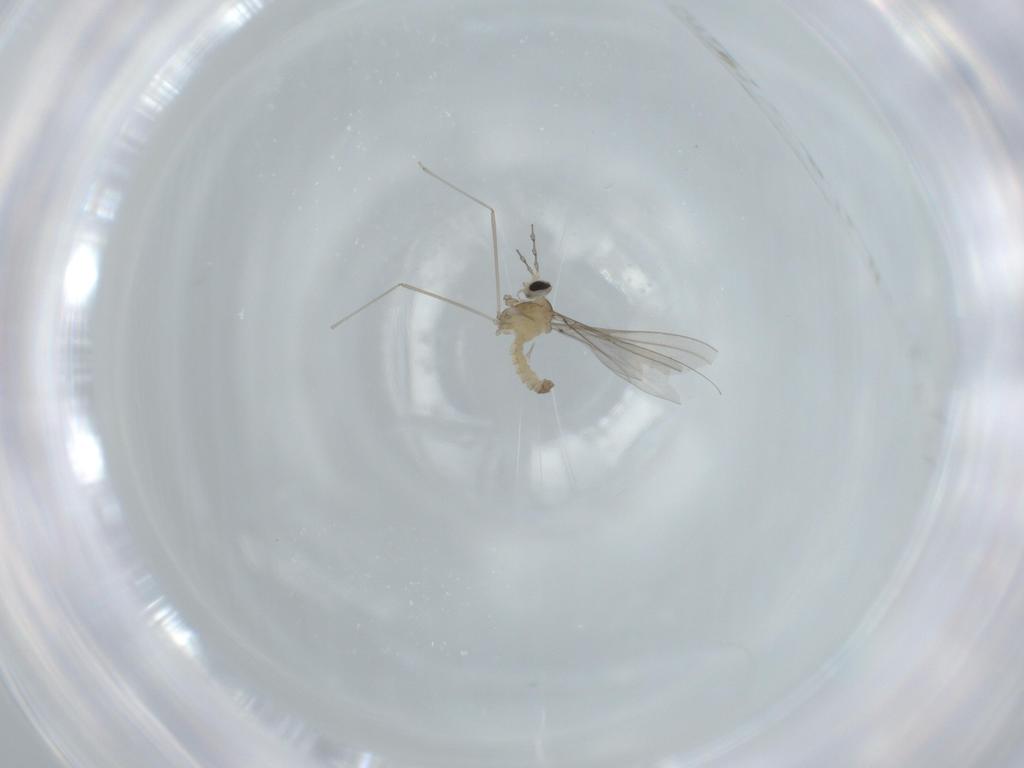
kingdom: Animalia
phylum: Arthropoda
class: Insecta
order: Diptera
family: Cecidomyiidae
